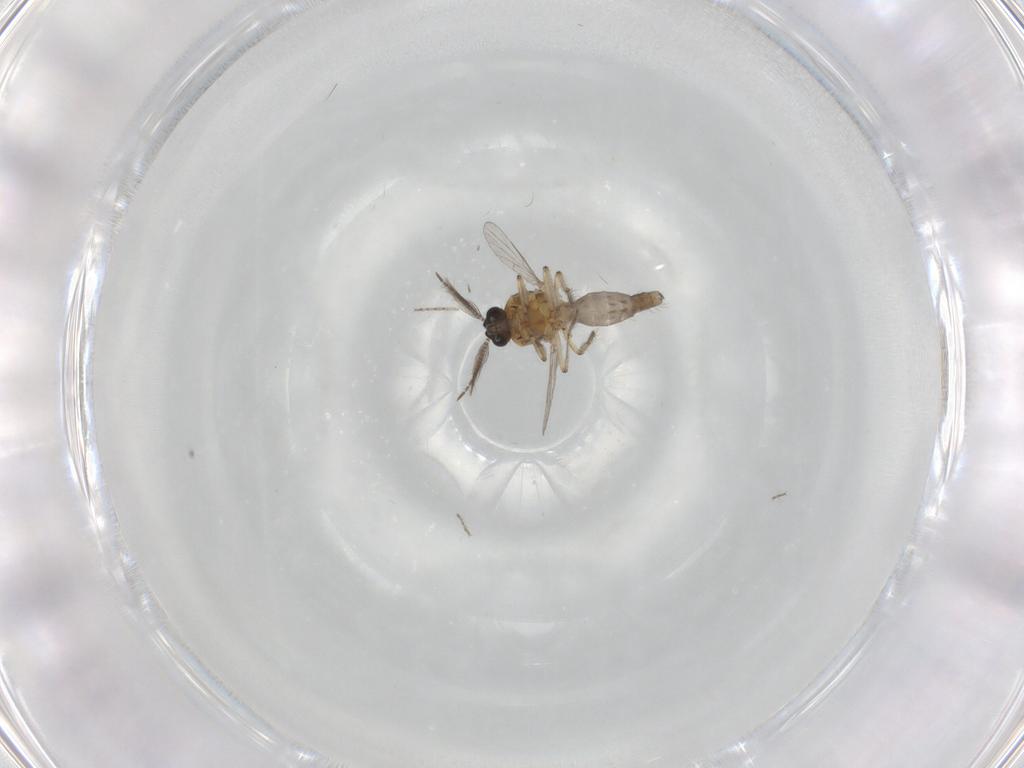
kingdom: Animalia
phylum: Arthropoda
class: Insecta
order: Diptera
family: Ceratopogonidae
